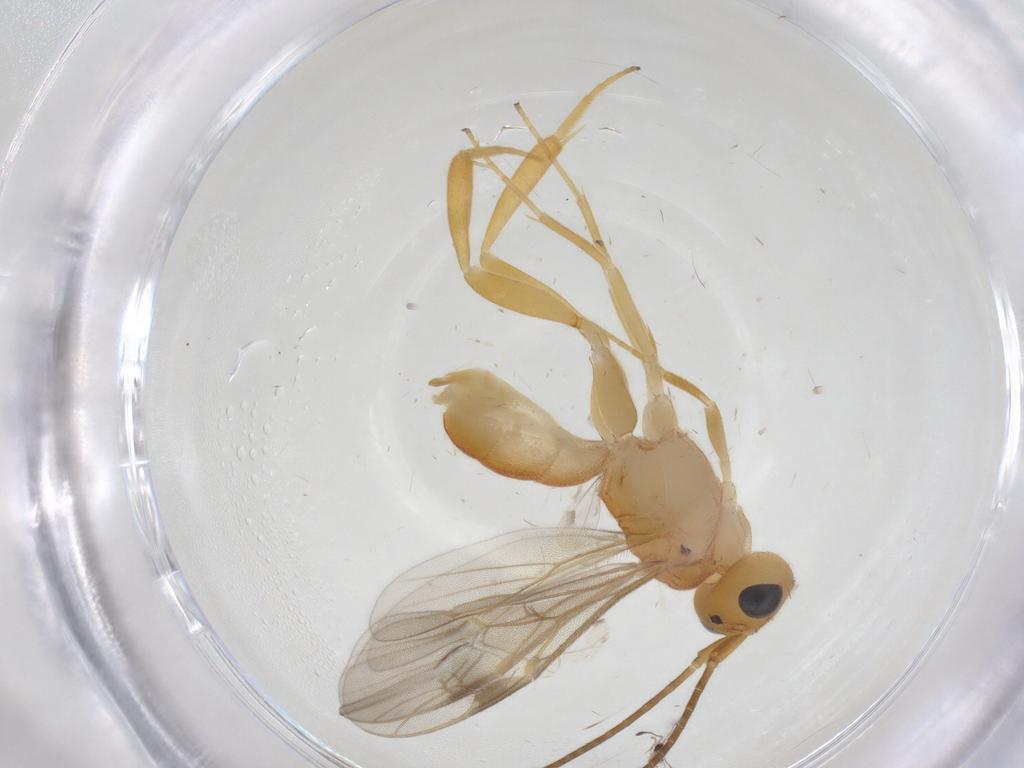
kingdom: Animalia
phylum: Arthropoda
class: Insecta
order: Hymenoptera
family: Braconidae
